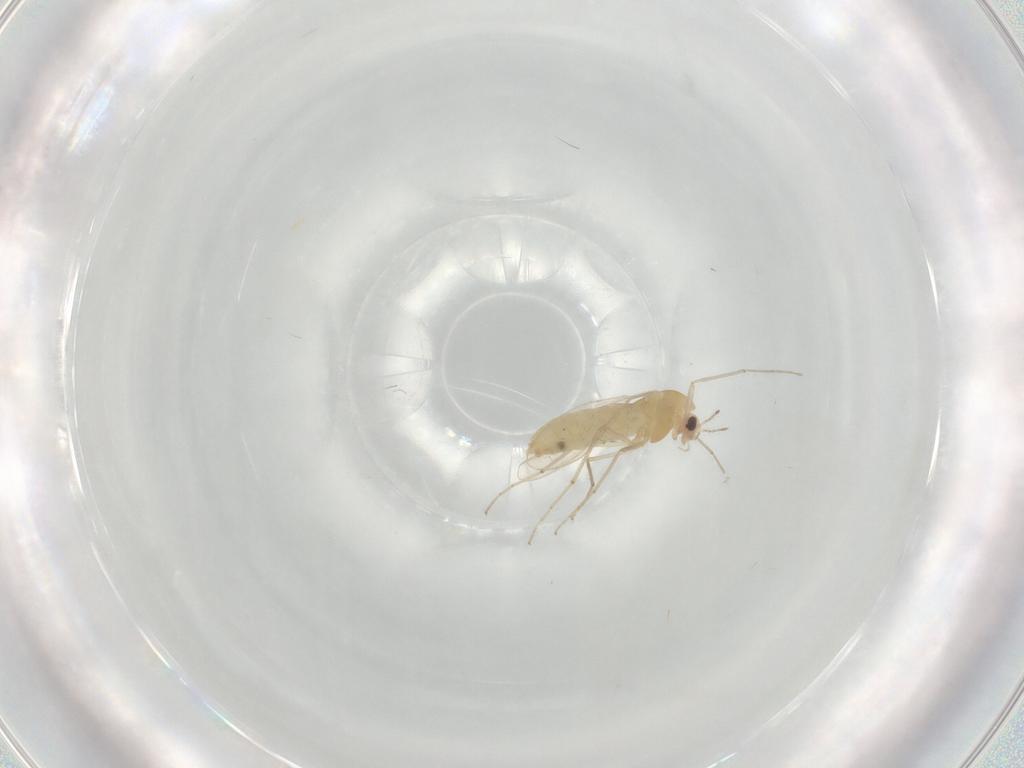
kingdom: Animalia
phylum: Arthropoda
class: Insecta
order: Diptera
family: Chironomidae
